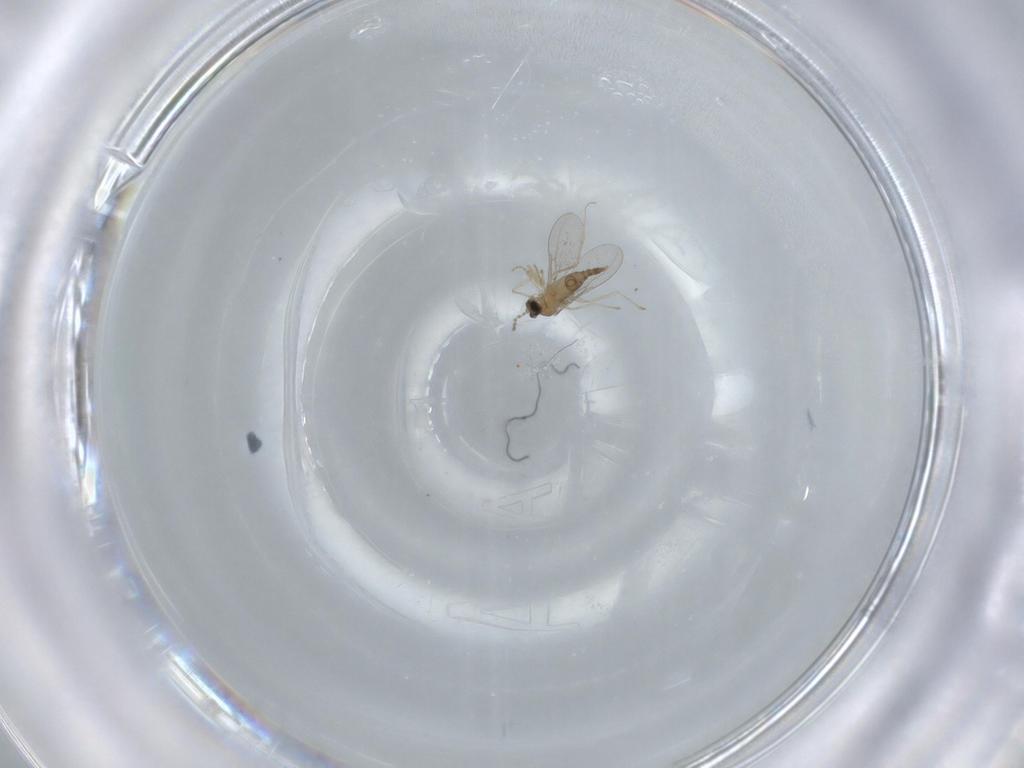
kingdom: Animalia
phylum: Arthropoda
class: Insecta
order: Diptera
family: Cecidomyiidae
